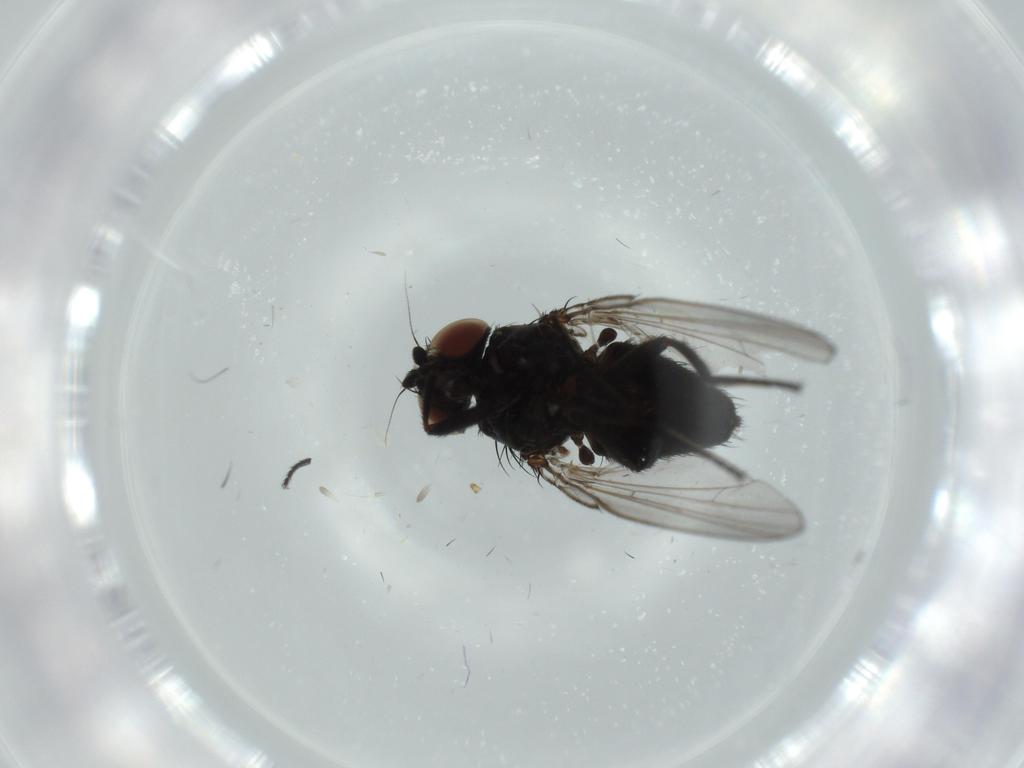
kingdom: Animalia
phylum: Arthropoda
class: Insecta
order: Diptera
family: Milichiidae
